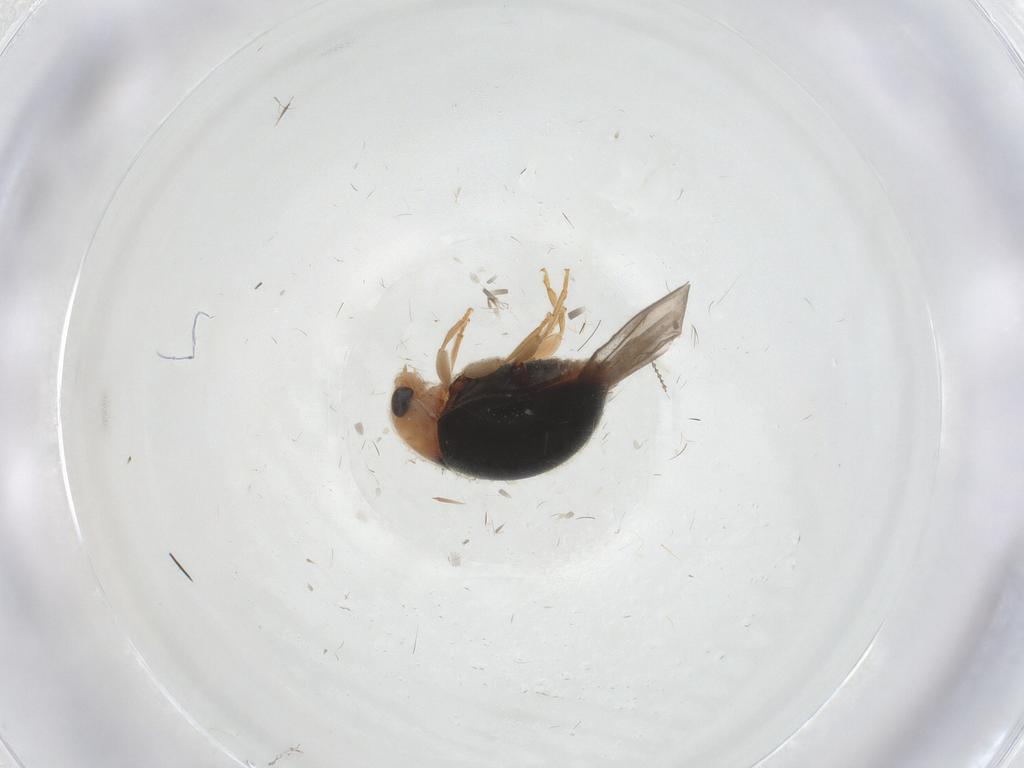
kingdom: Animalia
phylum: Arthropoda
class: Insecta
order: Coleoptera
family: Coccinellidae
